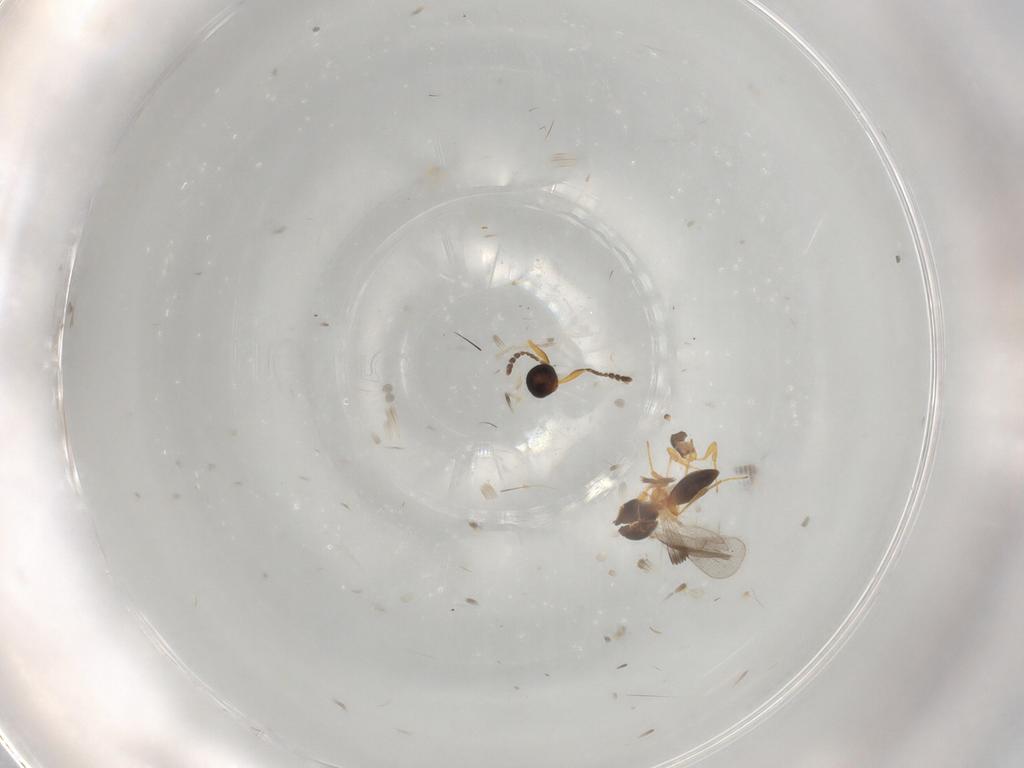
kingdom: Animalia
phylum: Arthropoda
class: Insecta
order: Hymenoptera
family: Platygastridae
